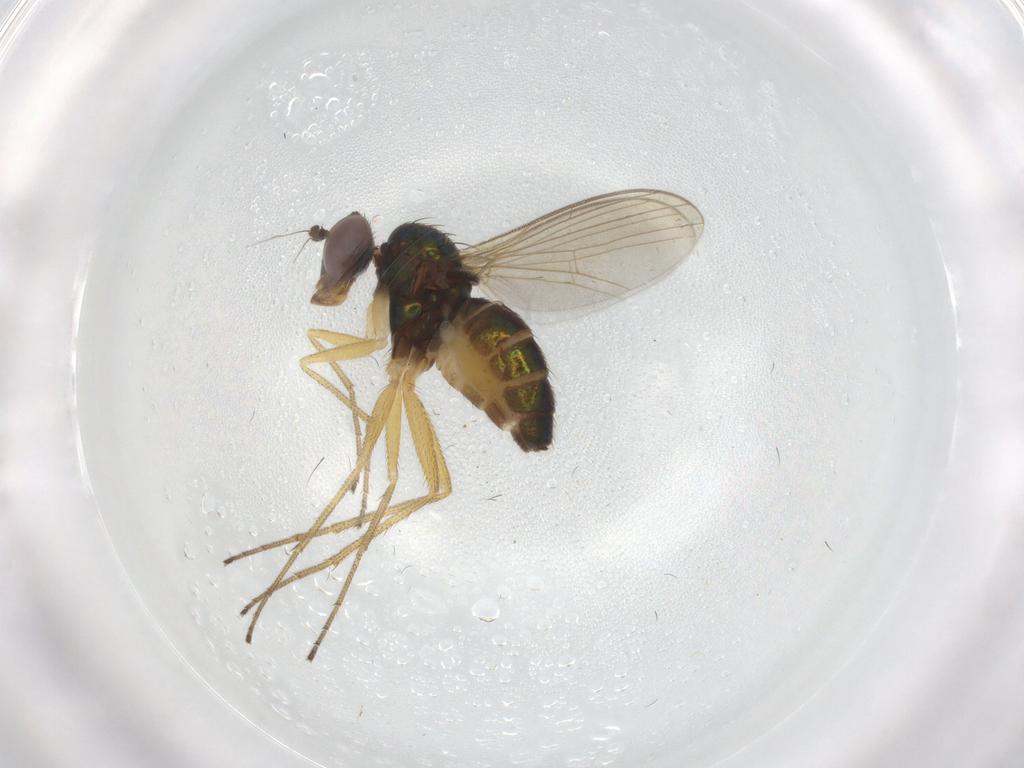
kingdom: Animalia
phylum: Arthropoda
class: Insecta
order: Diptera
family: Dolichopodidae
